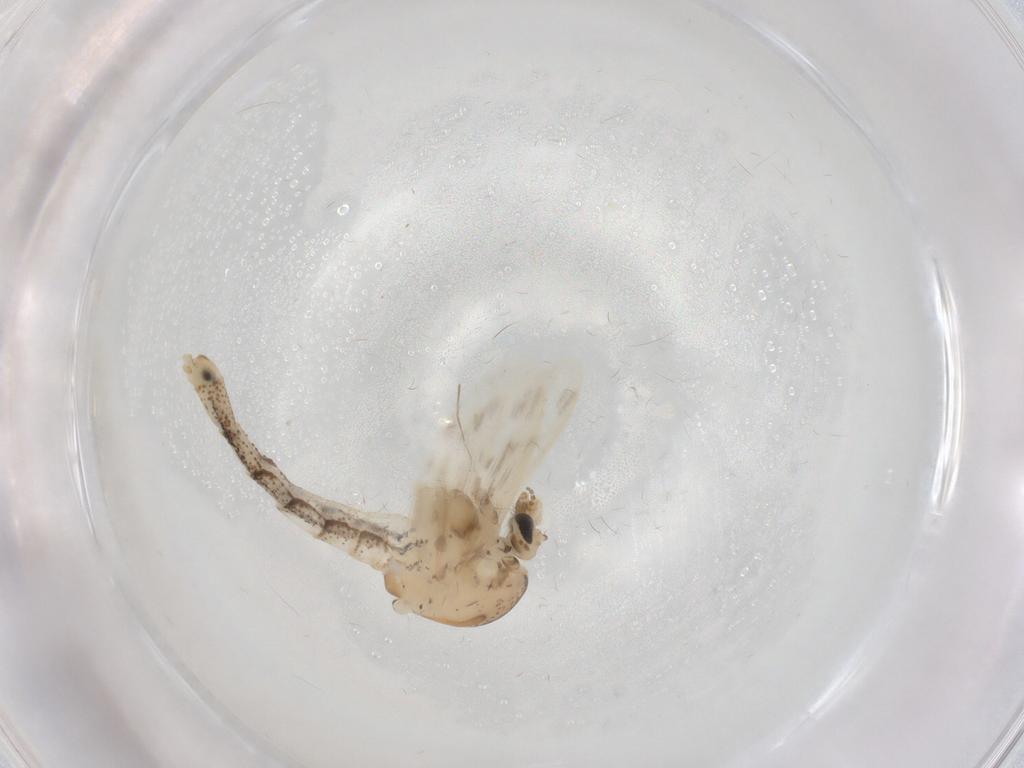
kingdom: Animalia
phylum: Arthropoda
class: Insecta
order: Diptera
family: Chaoboridae
